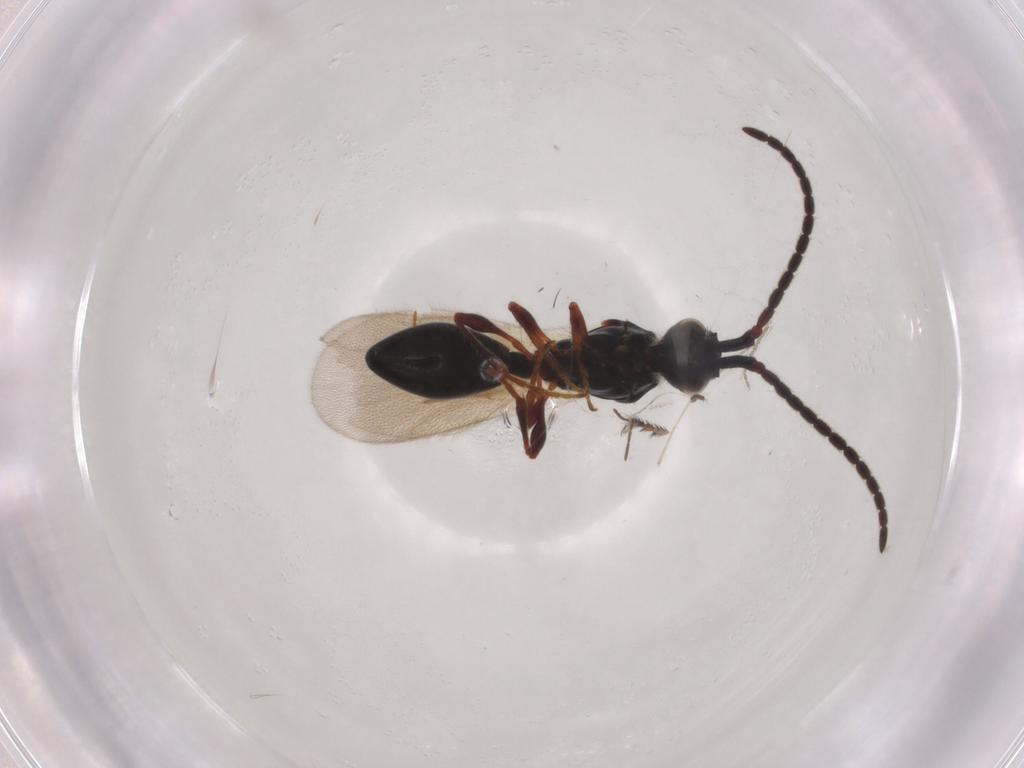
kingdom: Animalia
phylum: Arthropoda
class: Insecta
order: Hymenoptera
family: Diapriidae
